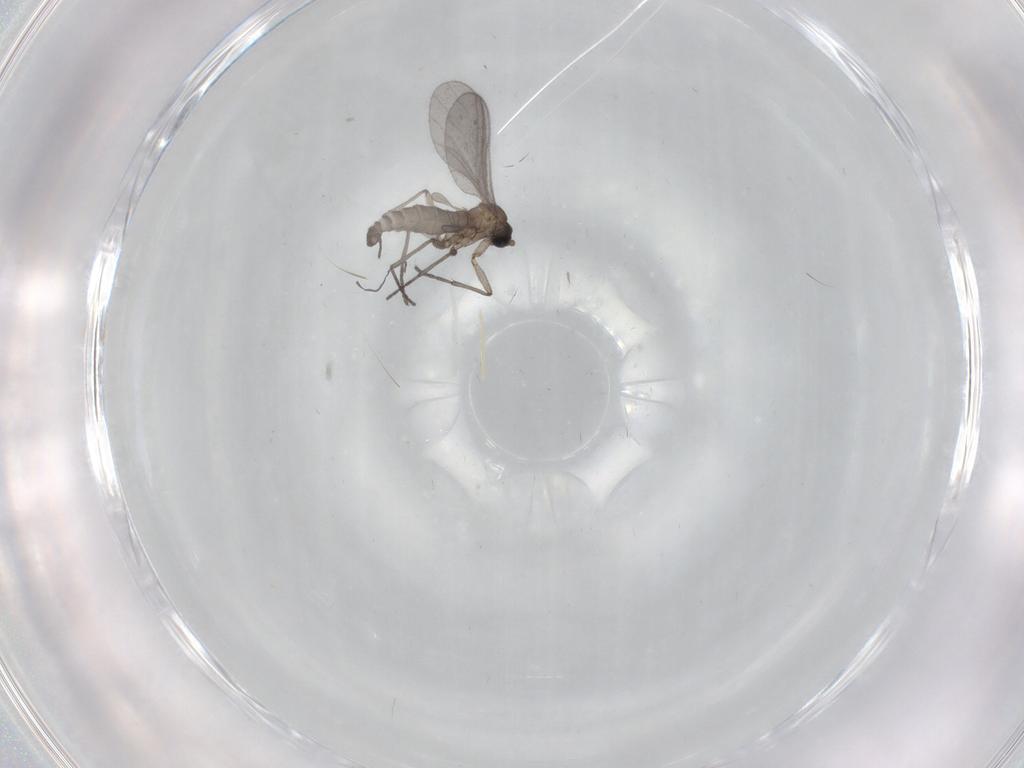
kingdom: Animalia
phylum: Arthropoda
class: Insecta
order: Diptera
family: Sciaridae
